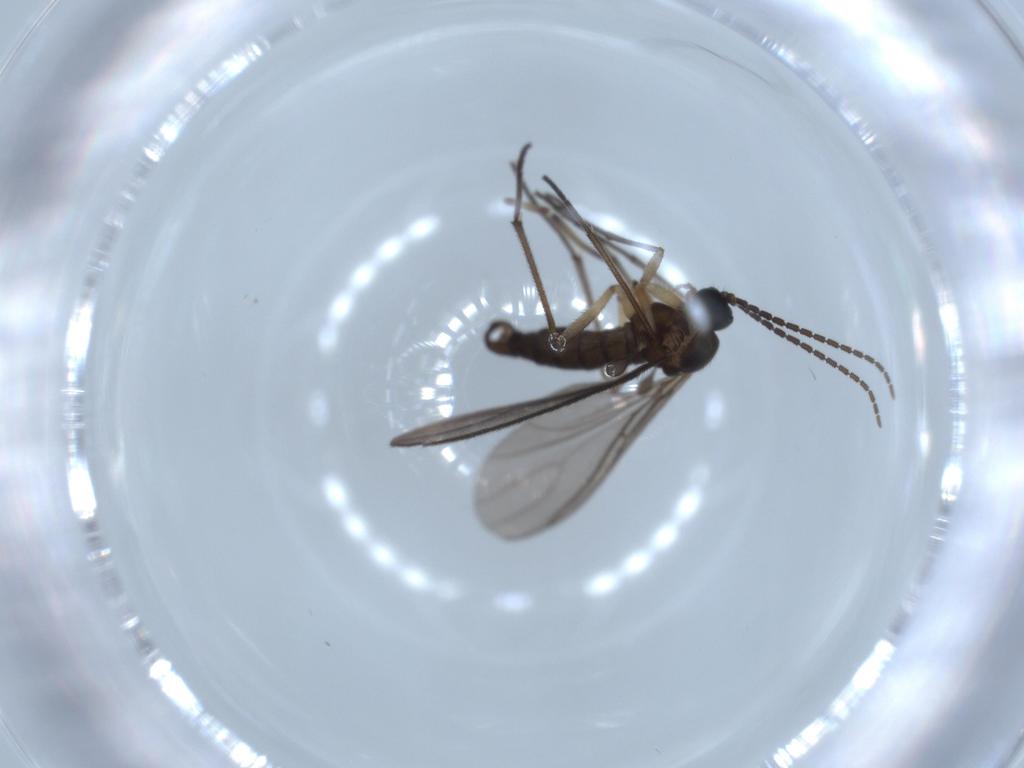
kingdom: Animalia
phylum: Arthropoda
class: Insecta
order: Diptera
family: Sciaridae
